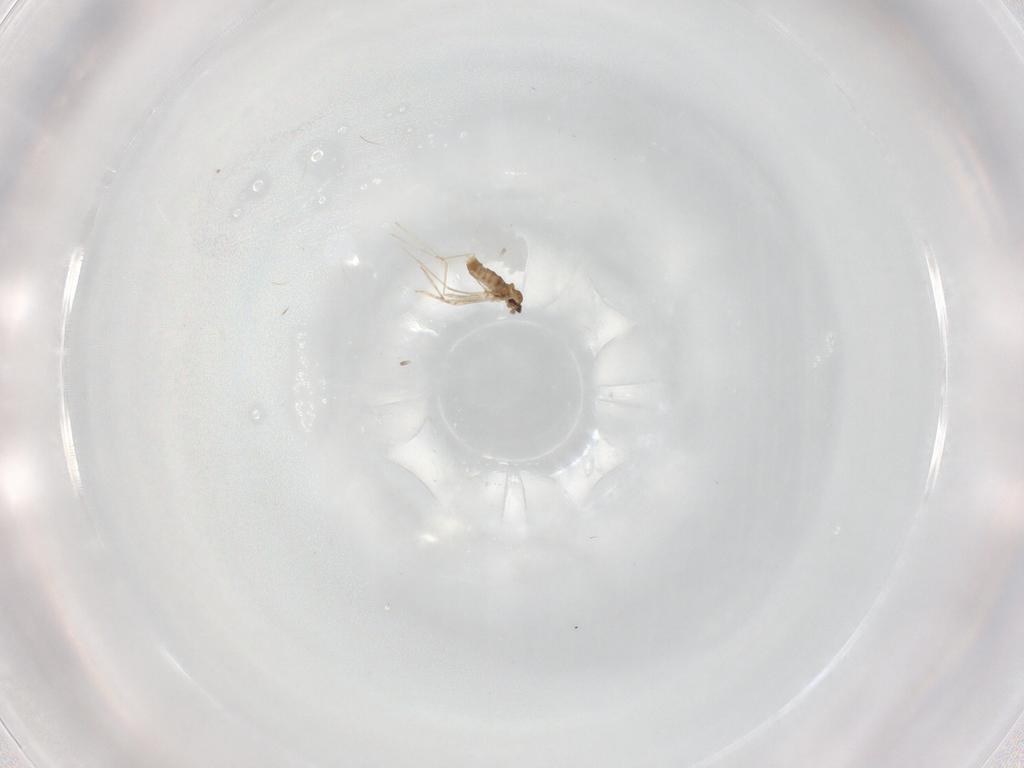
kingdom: Animalia
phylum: Arthropoda
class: Insecta
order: Diptera
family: Cecidomyiidae
